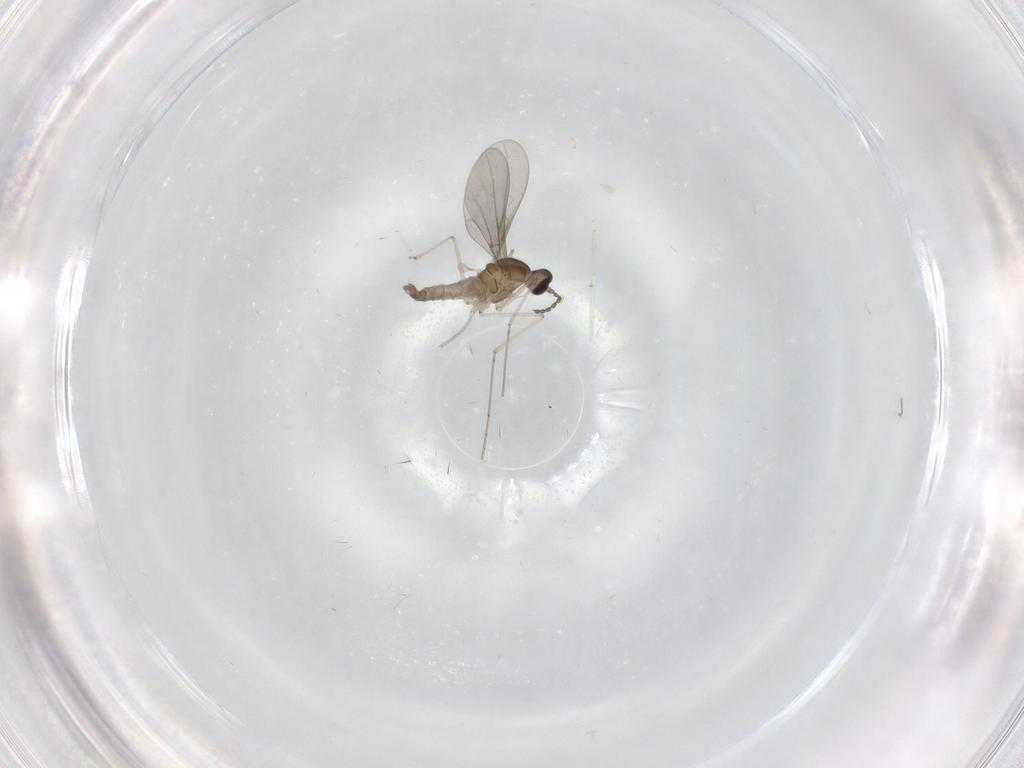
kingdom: Animalia
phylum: Arthropoda
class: Insecta
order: Diptera
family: Cecidomyiidae
